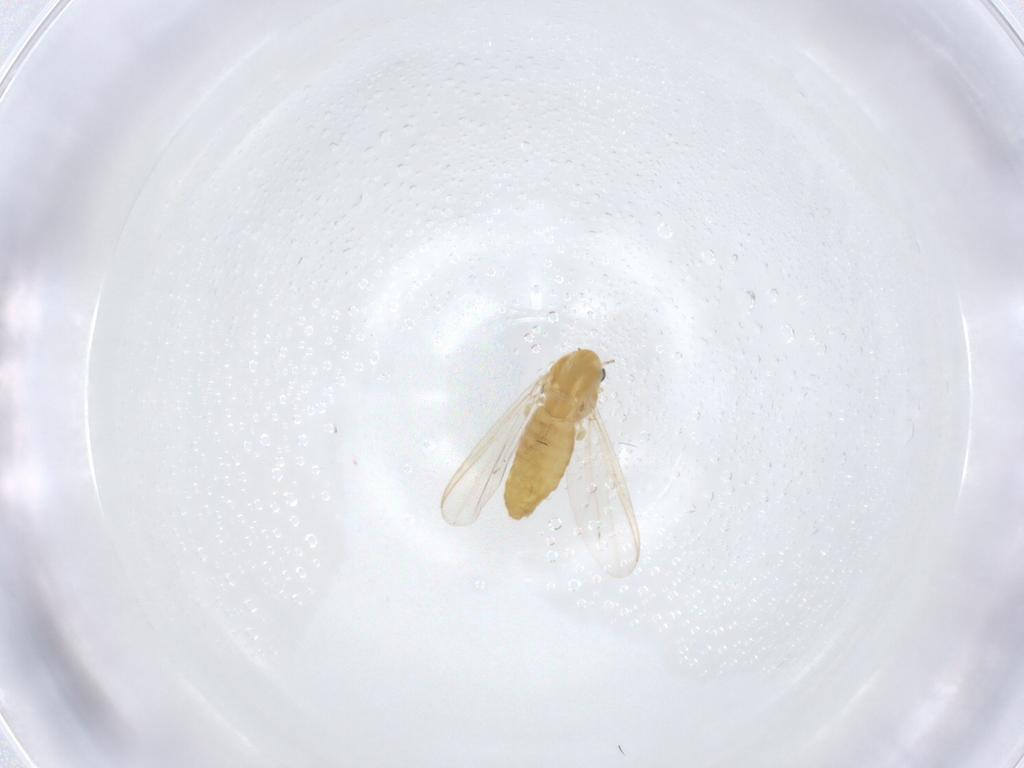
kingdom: Animalia
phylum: Arthropoda
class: Insecta
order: Diptera
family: Chironomidae
